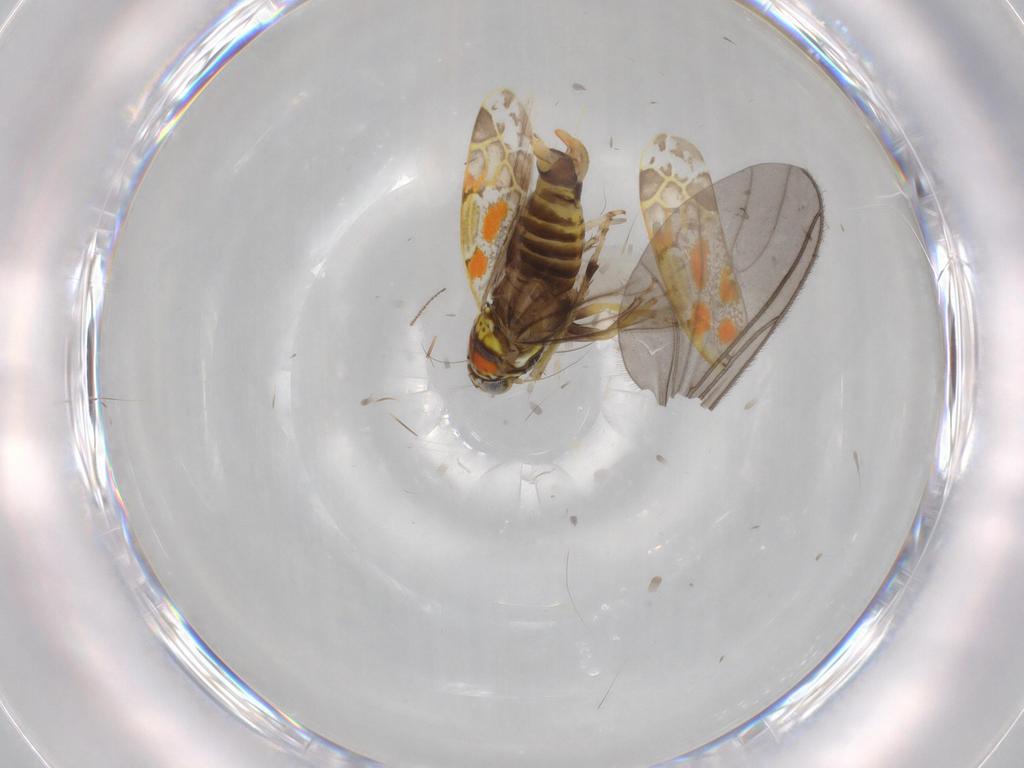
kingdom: Animalia
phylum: Arthropoda
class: Insecta
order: Hemiptera
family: Cicadellidae
